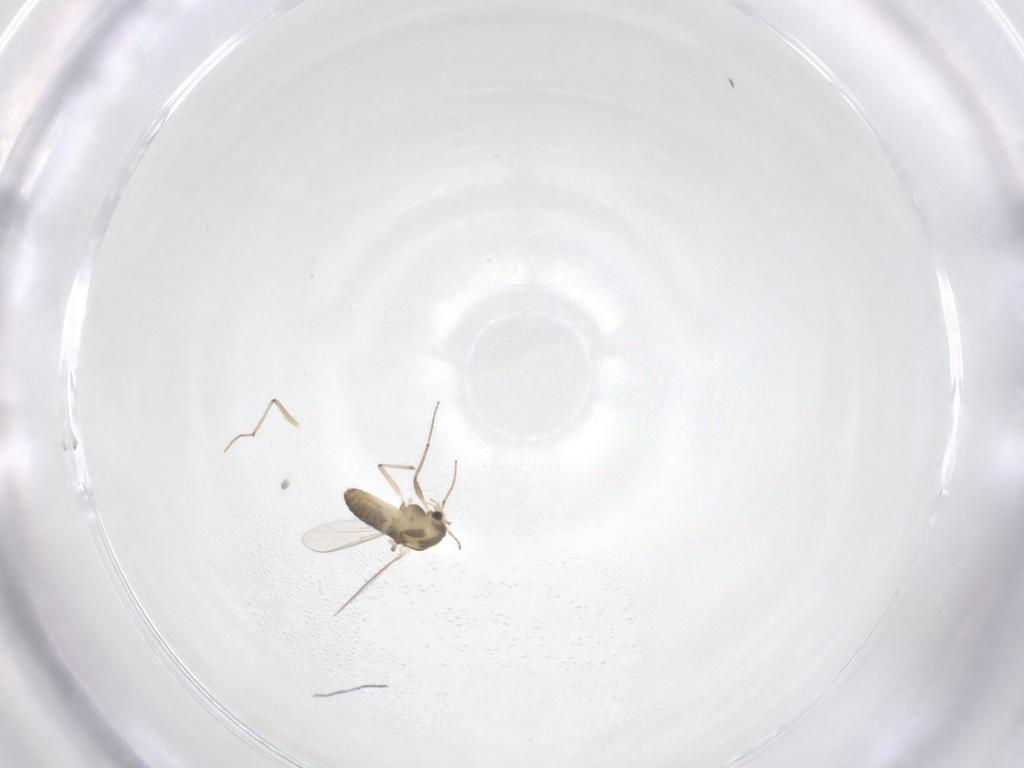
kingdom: Animalia
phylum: Arthropoda
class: Insecta
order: Diptera
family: Chironomidae
